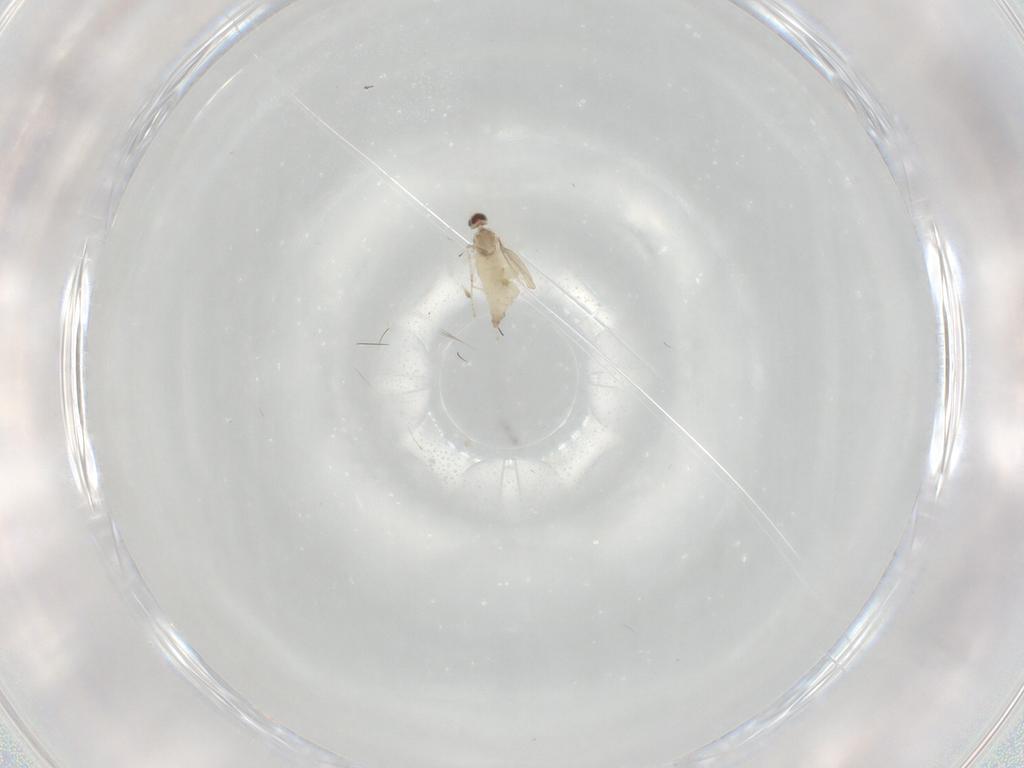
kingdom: Animalia
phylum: Arthropoda
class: Insecta
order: Diptera
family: Cecidomyiidae
